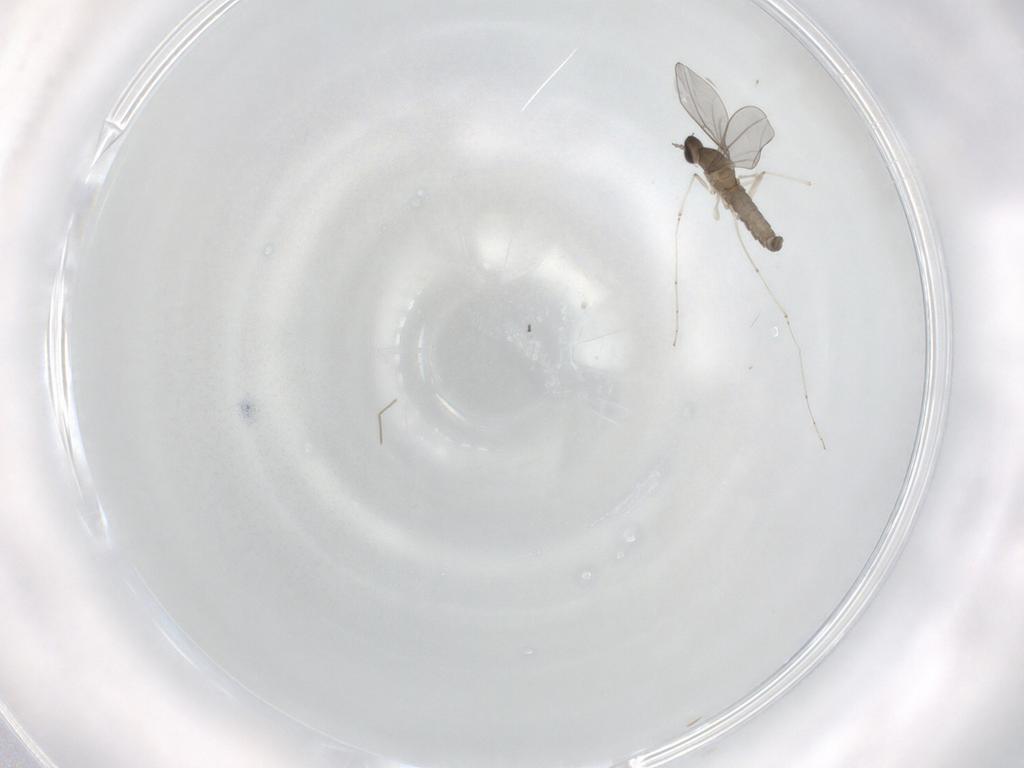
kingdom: Animalia
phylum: Arthropoda
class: Insecta
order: Diptera
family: Cecidomyiidae
